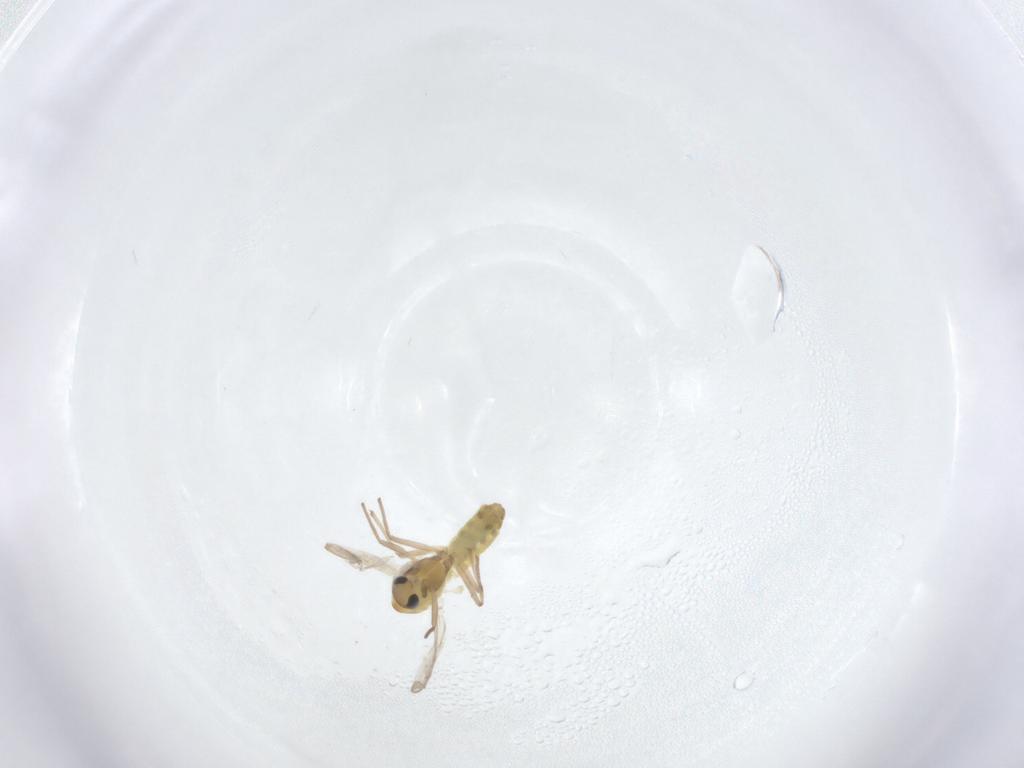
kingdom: Animalia
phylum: Arthropoda
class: Insecta
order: Diptera
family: Chironomidae
